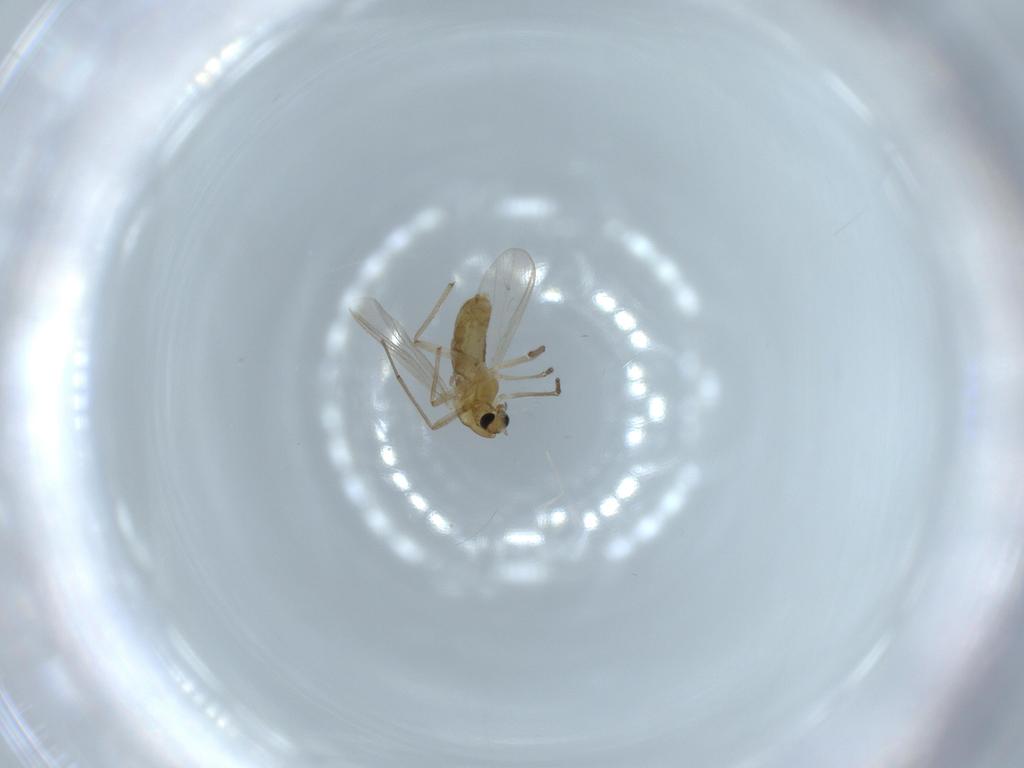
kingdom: Animalia
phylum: Arthropoda
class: Insecta
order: Diptera
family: Chironomidae
